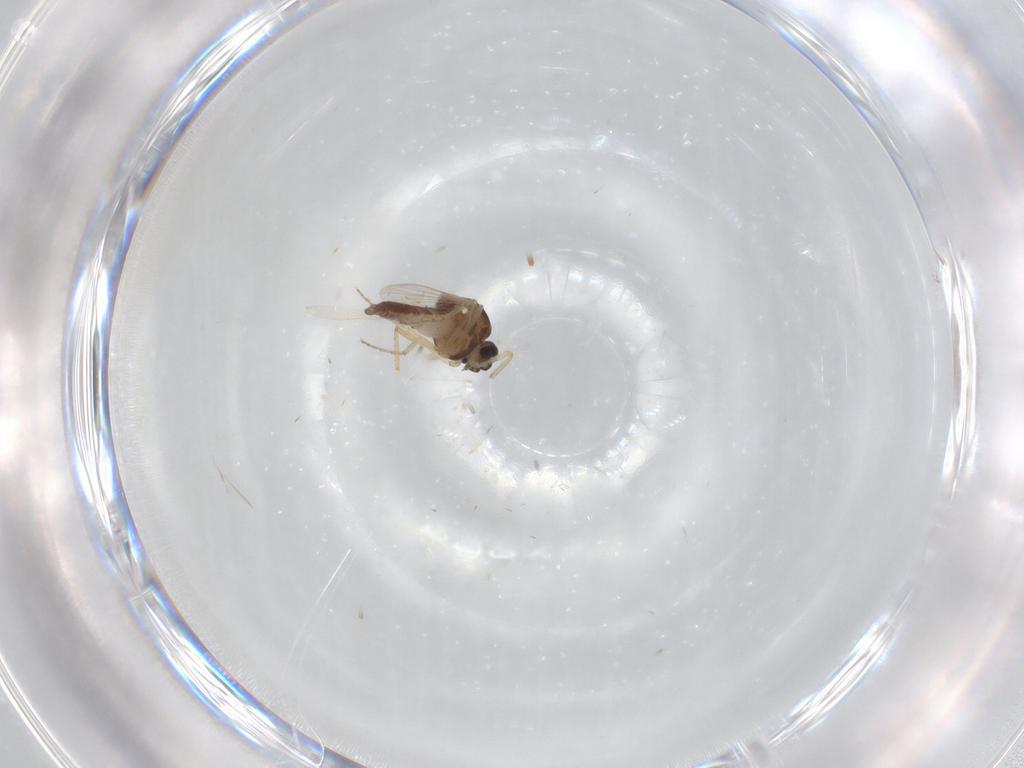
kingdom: Animalia
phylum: Arthropoda
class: Insecta
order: Diptera
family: Ceratopogonidae
